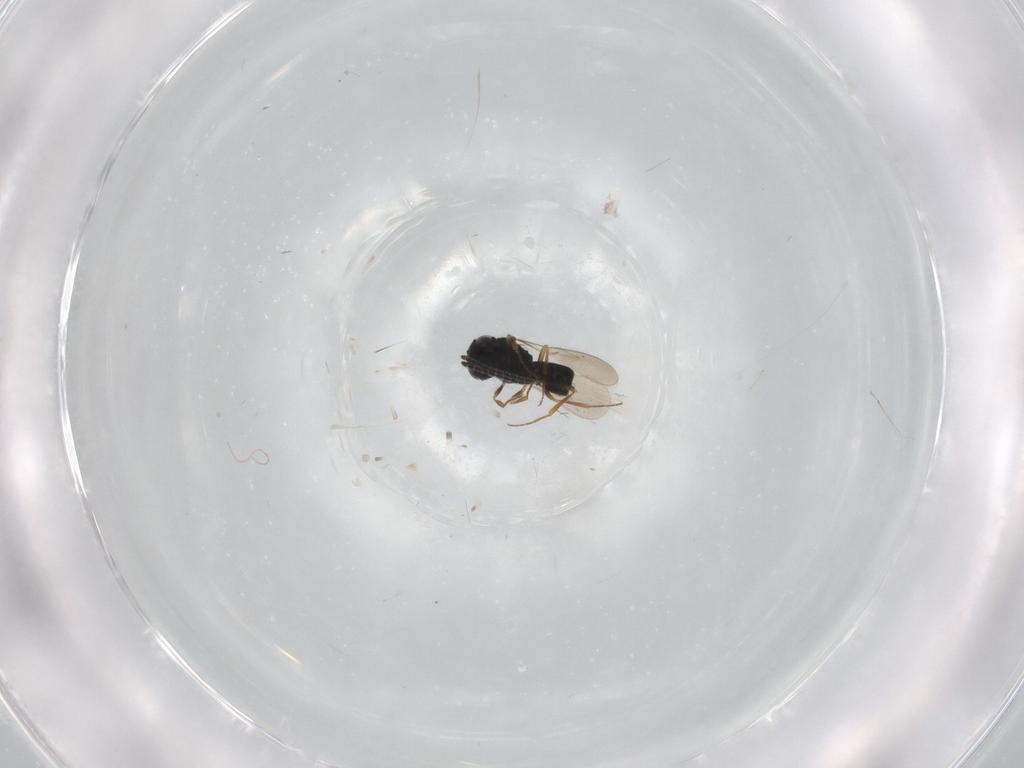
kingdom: Animalia
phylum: Arthropoda
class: Insecta
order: Hymenoptera
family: Scelionidae
